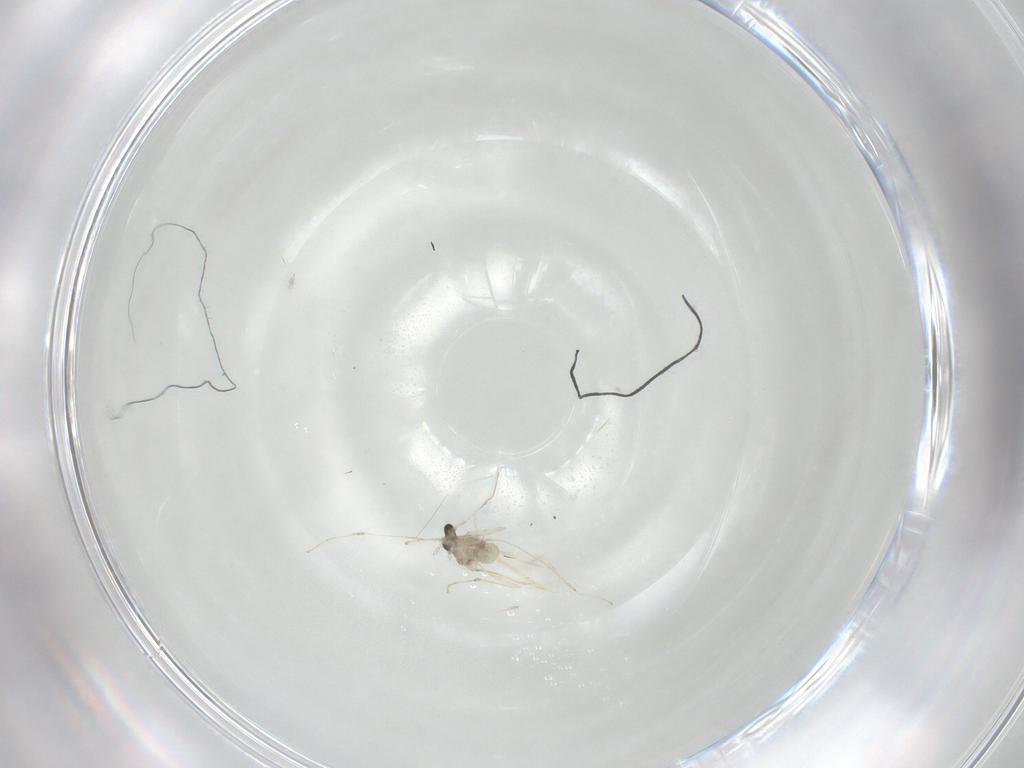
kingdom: Animalia
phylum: Arthropoda
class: Insecta
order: Diptera
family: Cecidomyiidae
